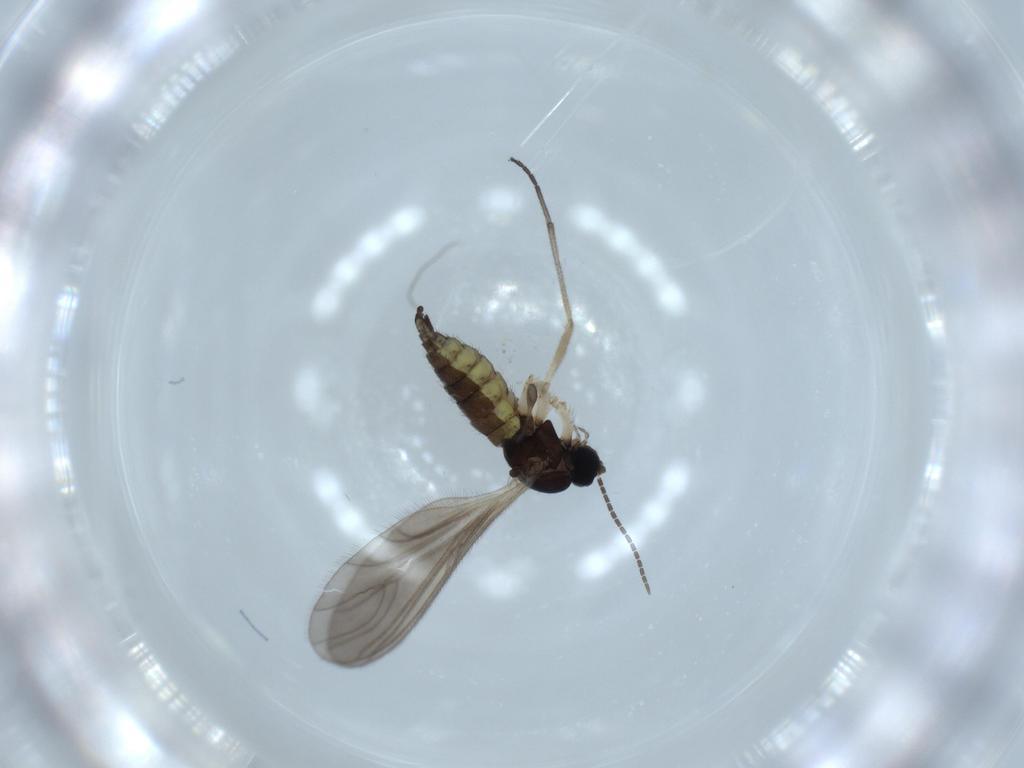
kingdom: Animalia
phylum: Arthropoda
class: Insecta
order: Diptera
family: Sciaridae
